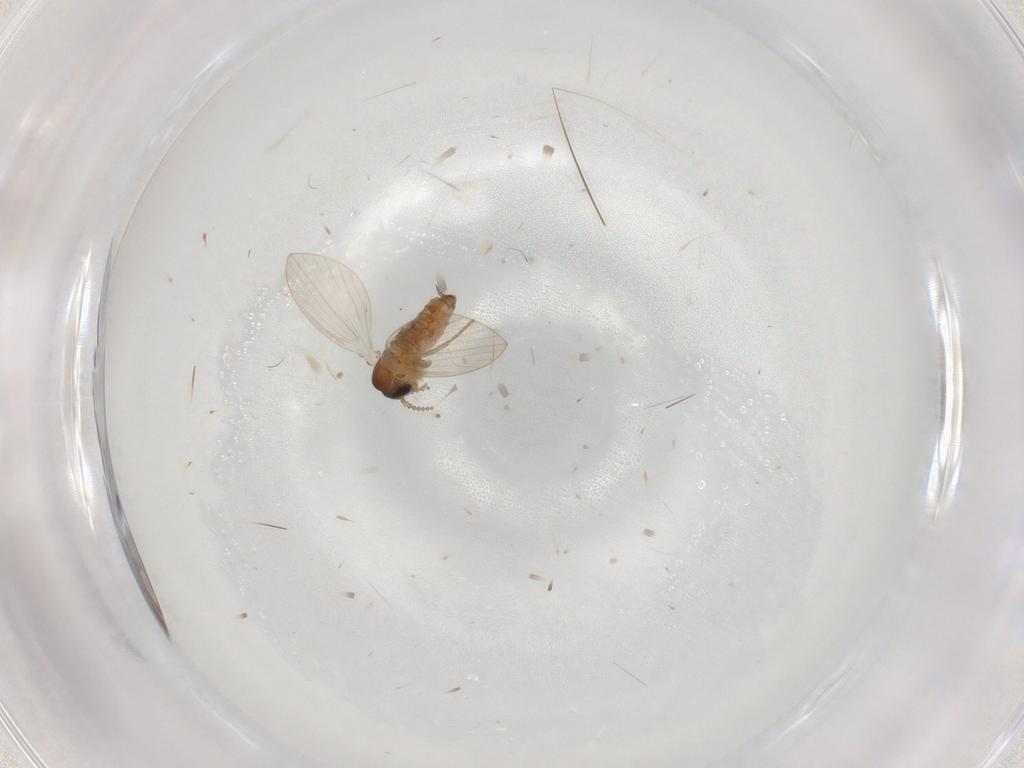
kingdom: Animalia
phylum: Arthropoda
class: Insecta
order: Diptera
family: Psychodidae
